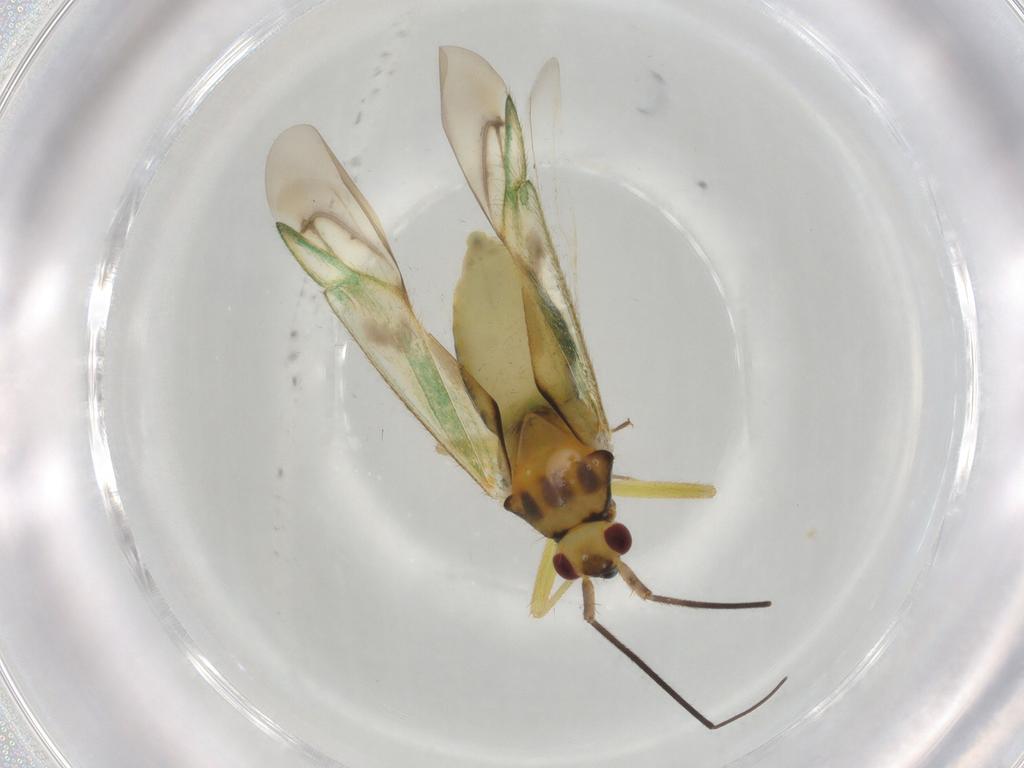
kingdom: Animalia
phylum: Arthropoda
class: Insecta
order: Hemiptera
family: Miridae
